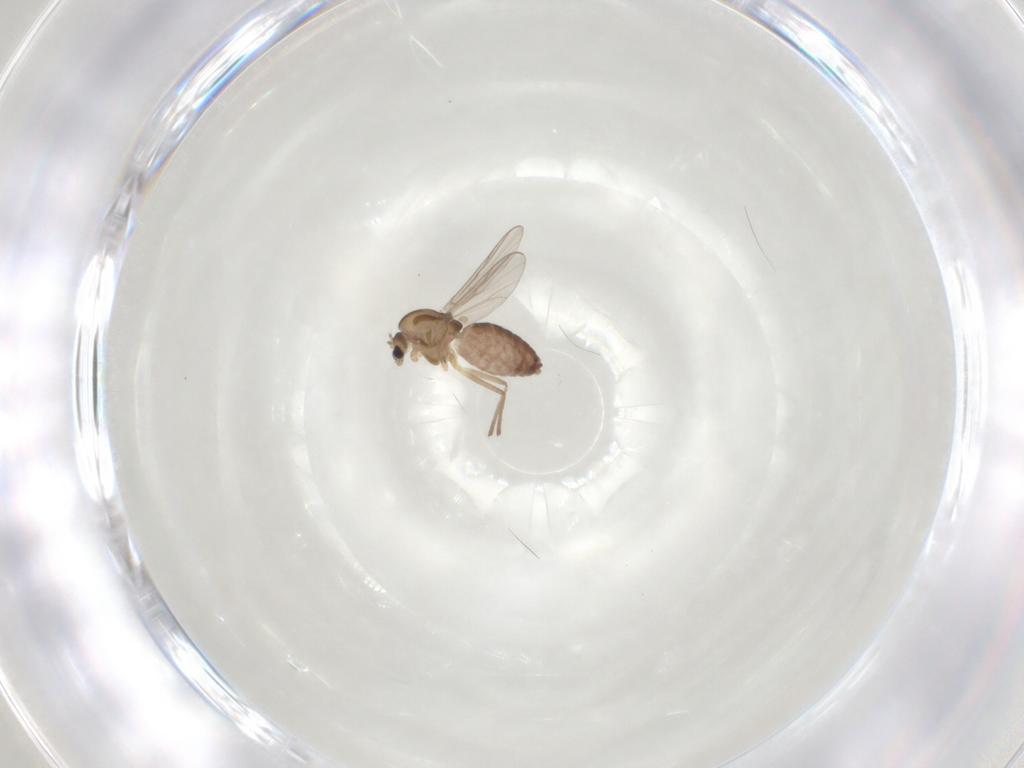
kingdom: Animalia
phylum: Arthropoda
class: Insecta
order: Diptera
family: Chironomidae
